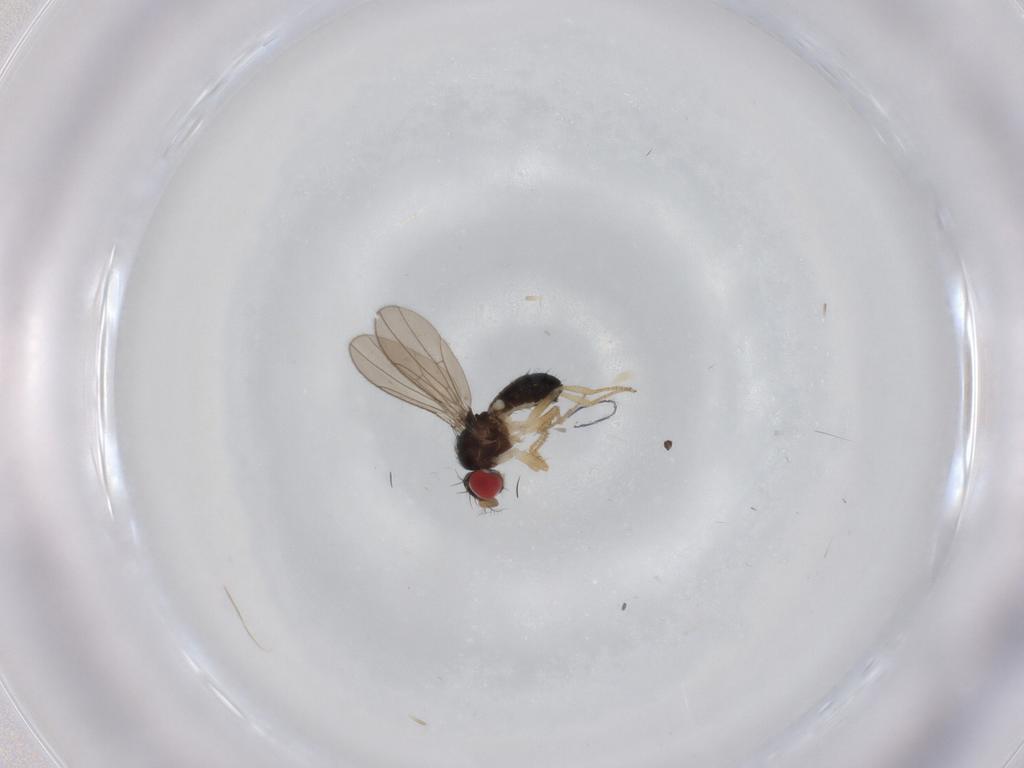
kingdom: Animalia
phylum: Arthropoda
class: Insecta
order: Diptera
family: Drosophilidae
